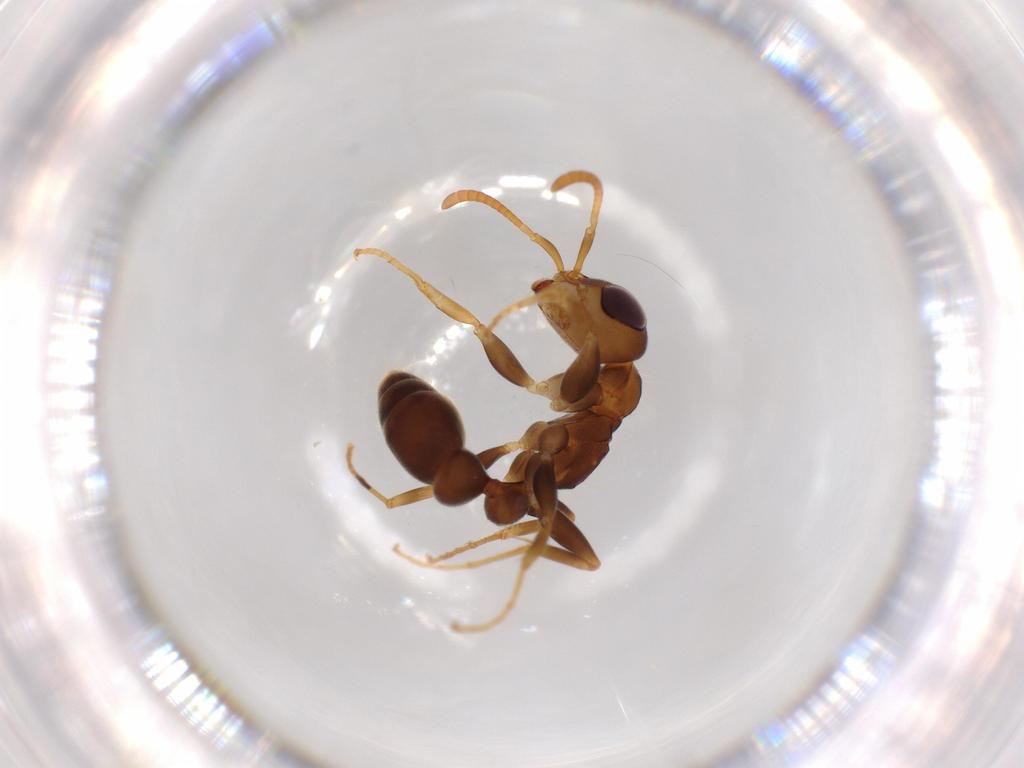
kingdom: Animalia
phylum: Arthropoda
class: Insecta
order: Hymenoptera
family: Formicidae
